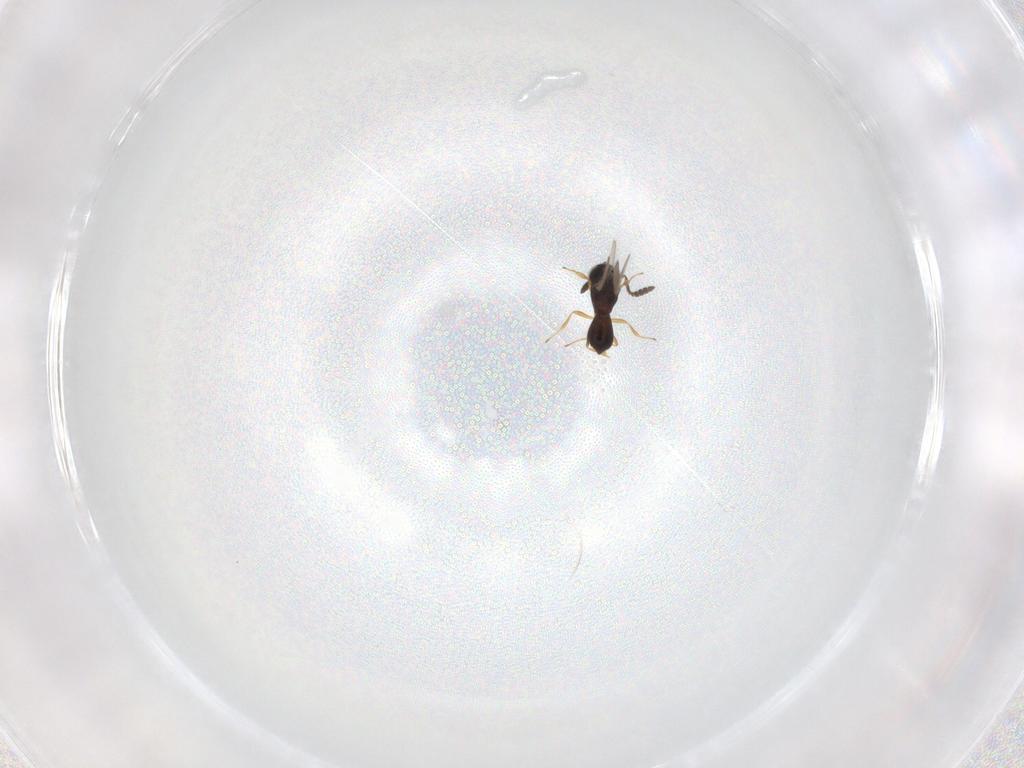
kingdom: Animalia
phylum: Arthropoda
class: Insecta
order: Hymenoptera
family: Scelionidae
